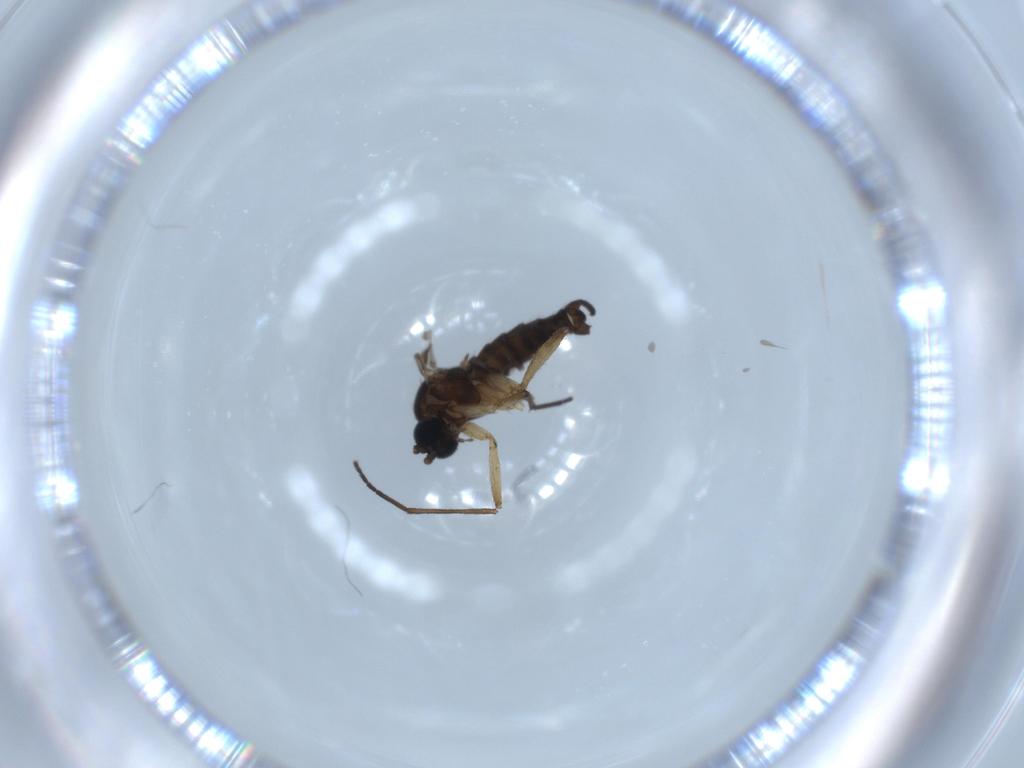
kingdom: Animalia
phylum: Arthropoda
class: Insecta
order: Diptera
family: Sciaridae
